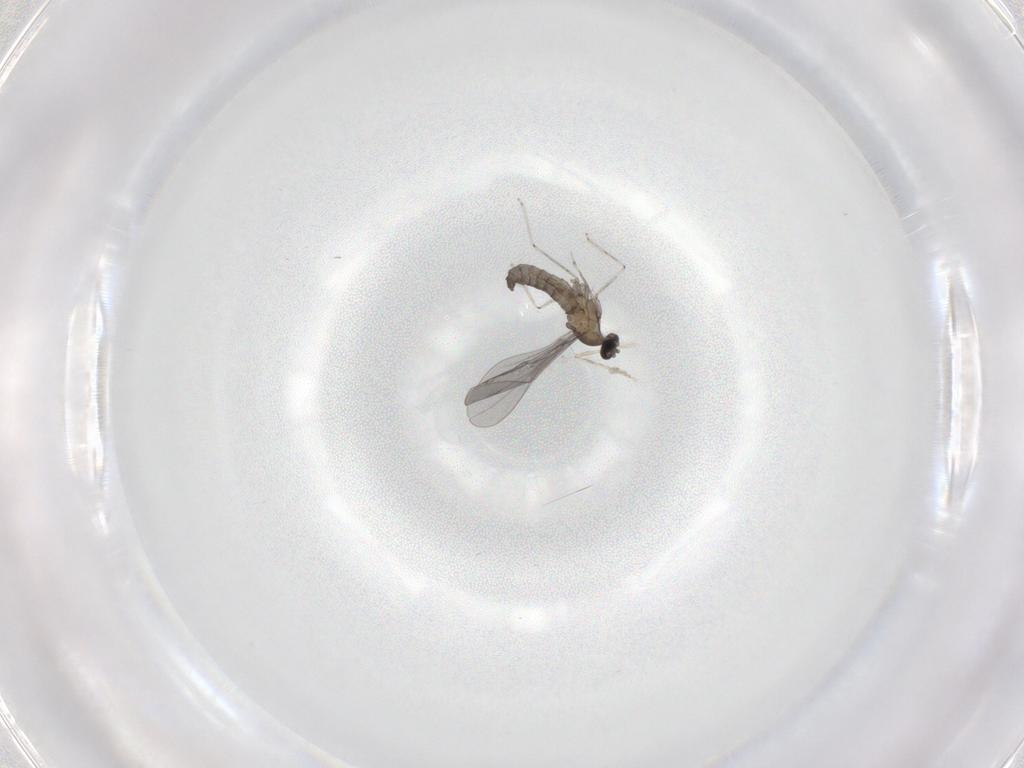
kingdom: Animalia
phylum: Arthropoda
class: Insecta
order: Diptera
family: Cecidomyiidae
